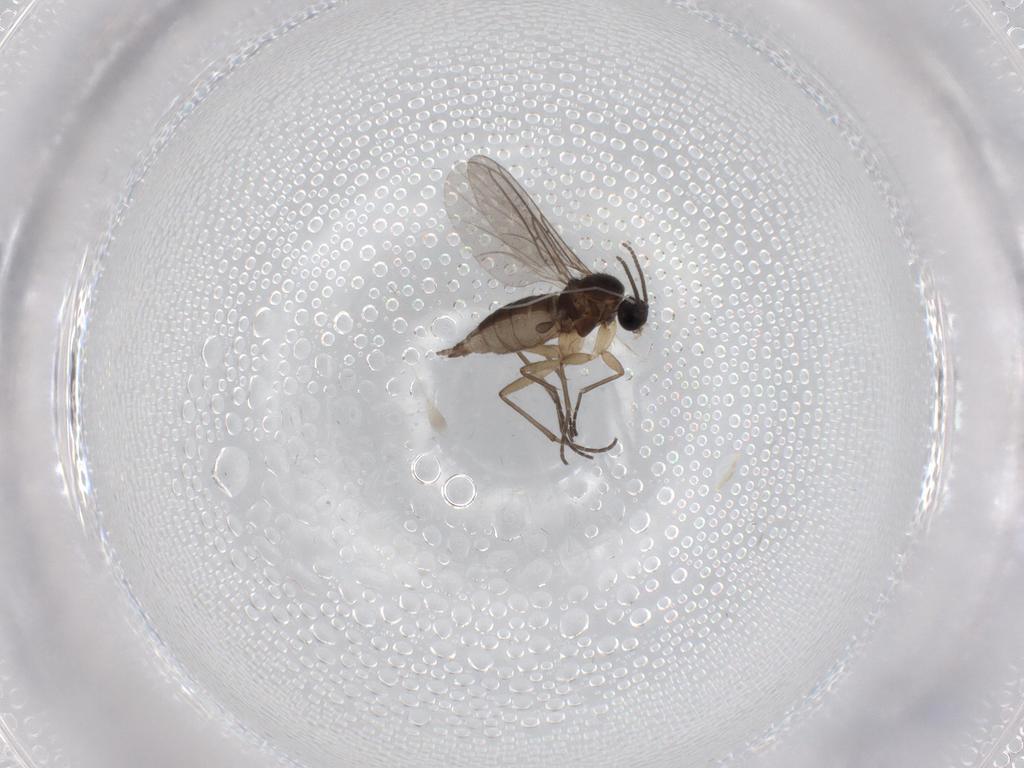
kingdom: Animalia
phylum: Arthropoda
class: Insecta
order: Diptera
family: Sciaridae
